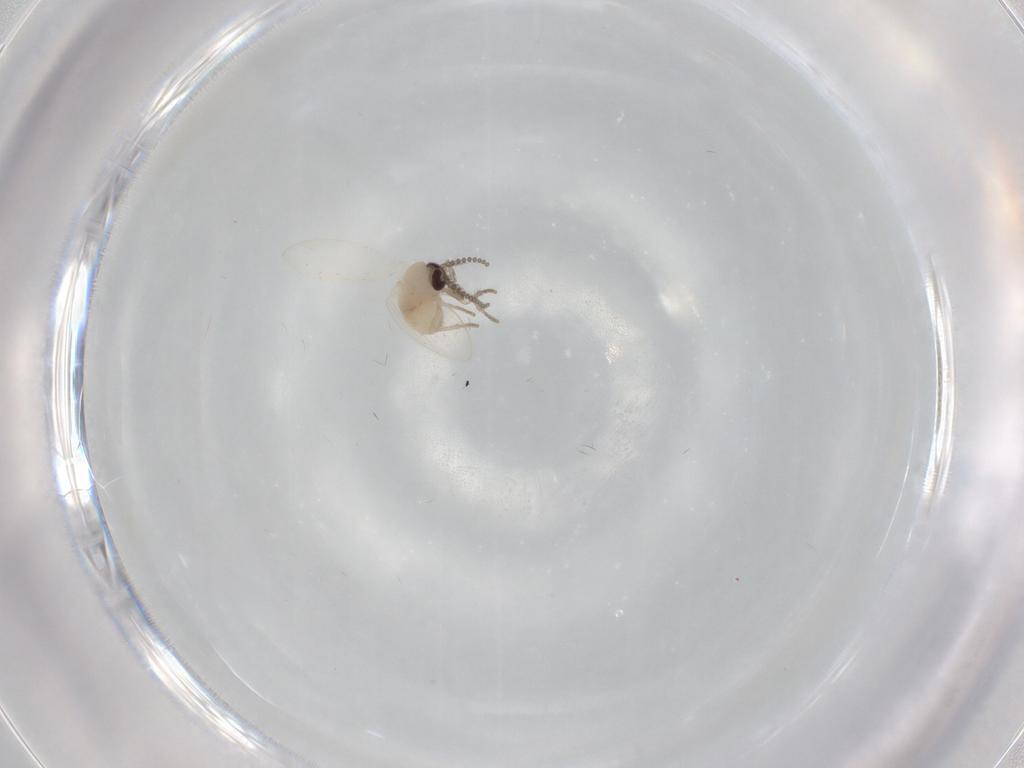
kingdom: Animalia
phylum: Arthropoda
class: Insecta
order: Diptera
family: Psychodidae
